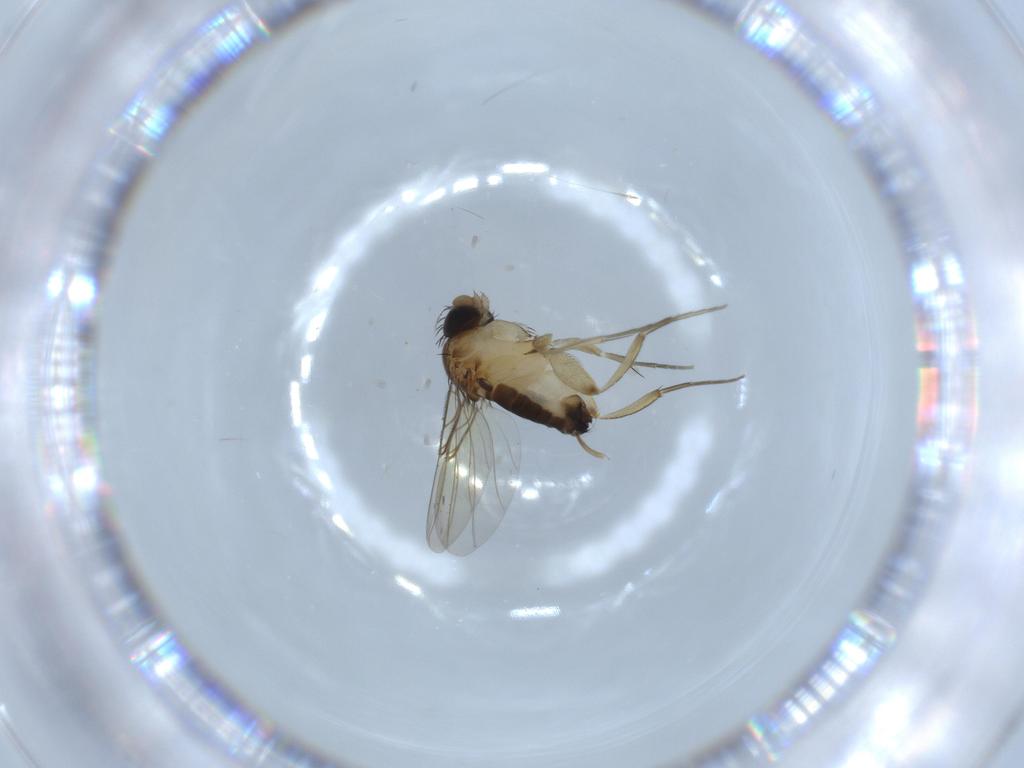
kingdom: Animalia
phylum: Arthropoda
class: Insecta
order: Diptera
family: Phoridae
